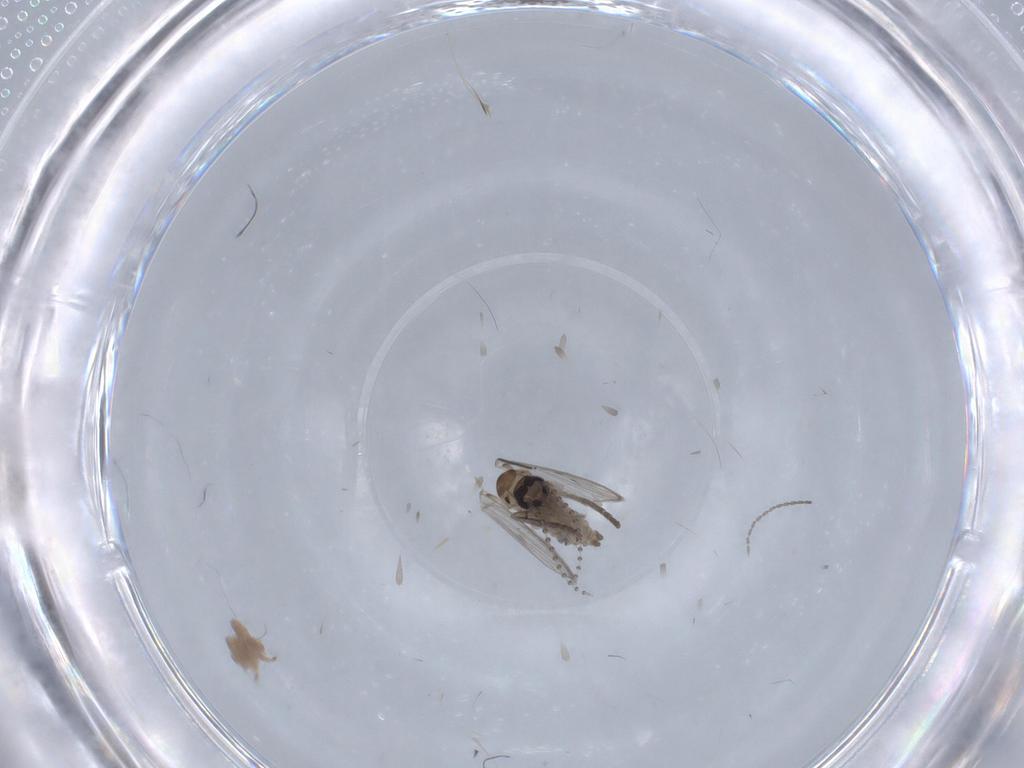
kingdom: Animalia
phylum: Arthropoda
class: Insecta
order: Diptera
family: Psychodidae
